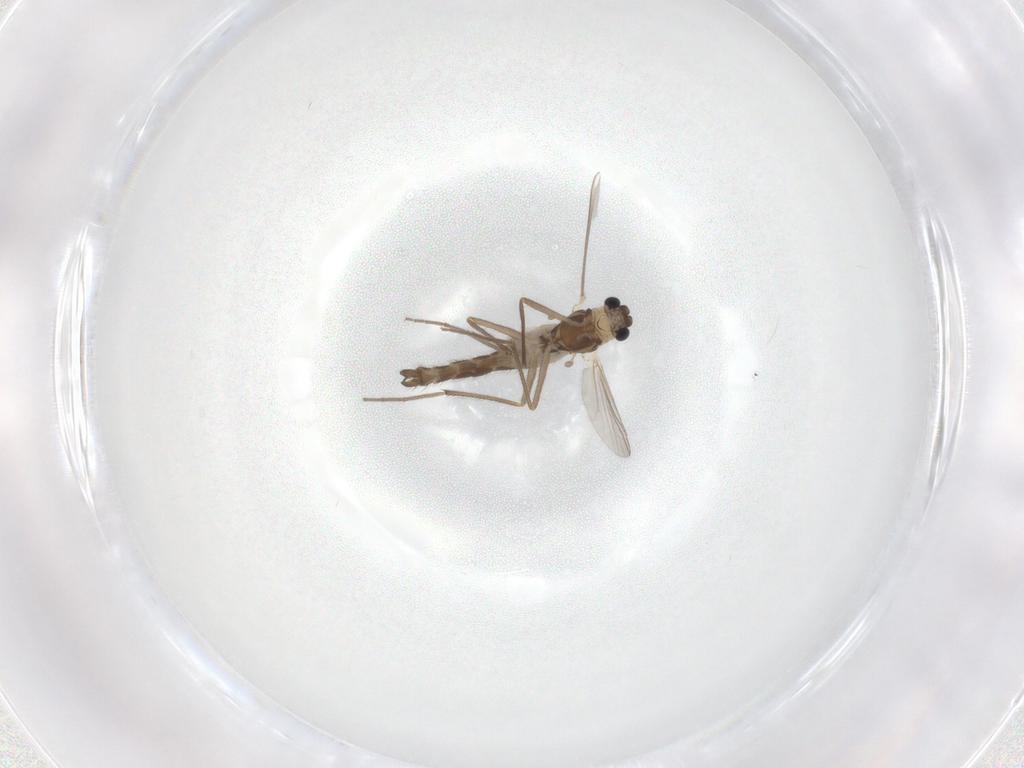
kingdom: Animalia
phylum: Arthropoda
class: Insecta
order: Diptera
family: Chironomidae
